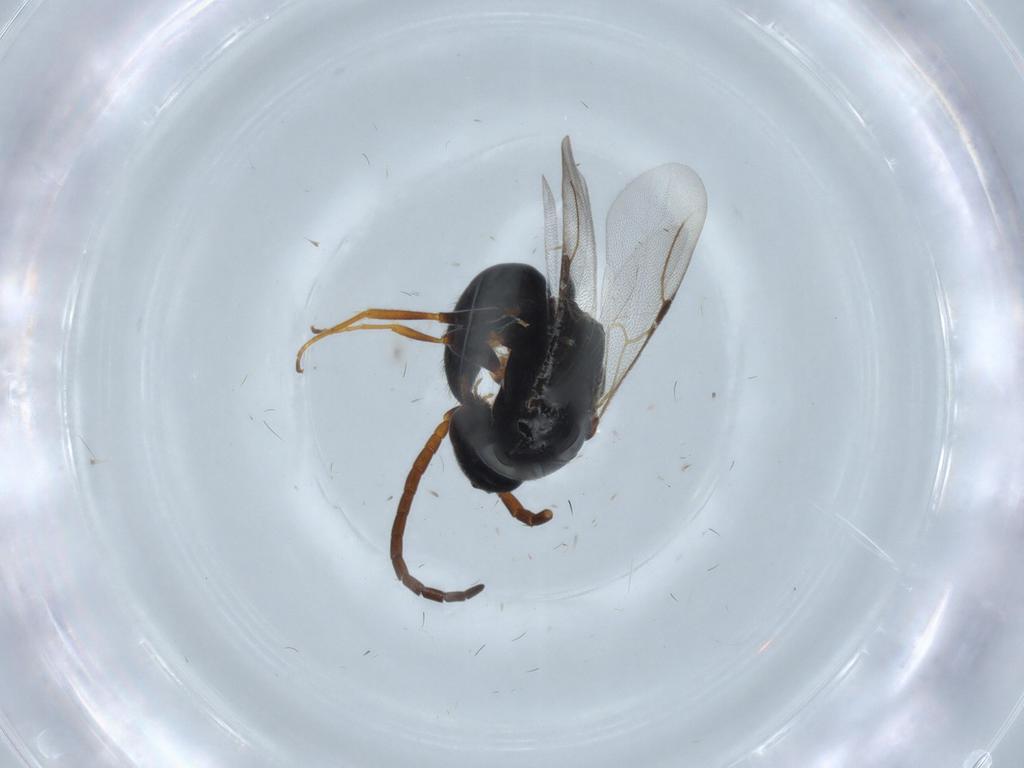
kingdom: Animalia
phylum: Arthropoda
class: Insecta
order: Hymenoptera
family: Bethylidae
